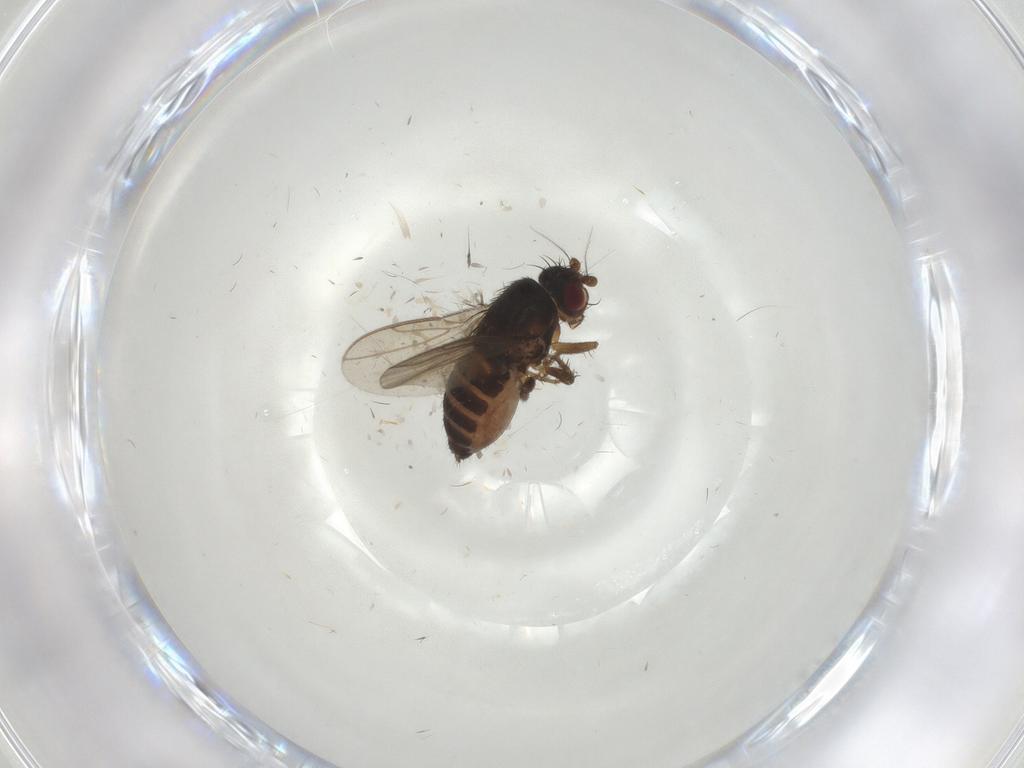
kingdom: Animalia
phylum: Arthropoda
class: Insecta
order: Diptera
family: Sphaeroceridae
